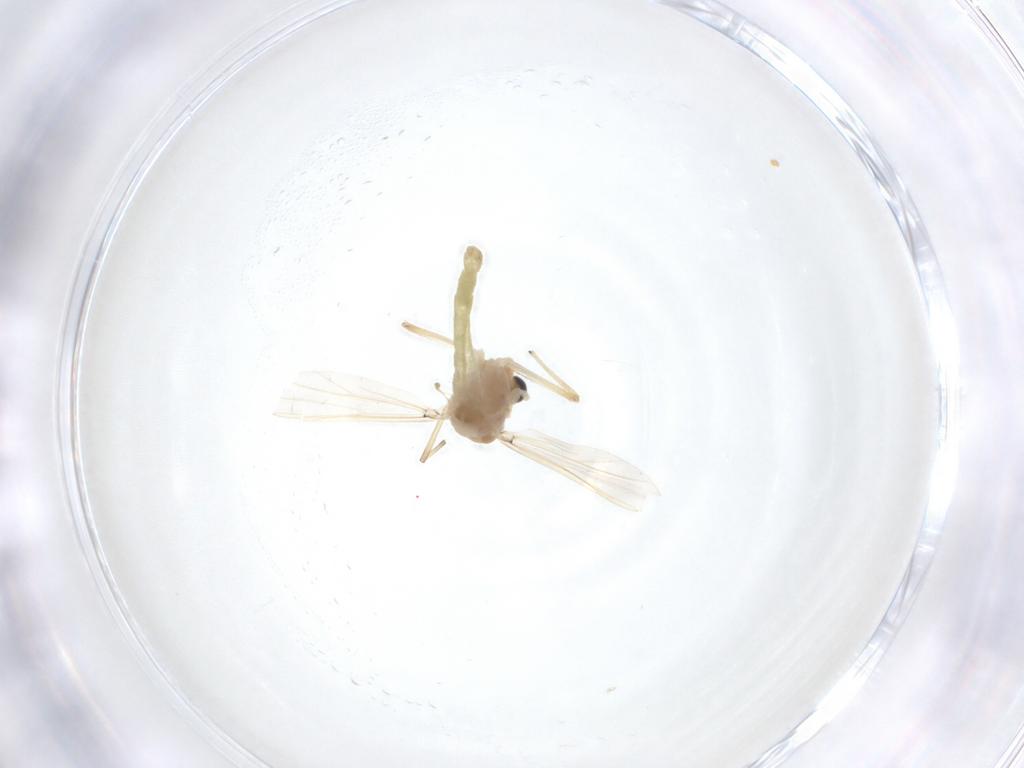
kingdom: Animalia
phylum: Arthropoda
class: Insecta
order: Diptera
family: Chironomidae
